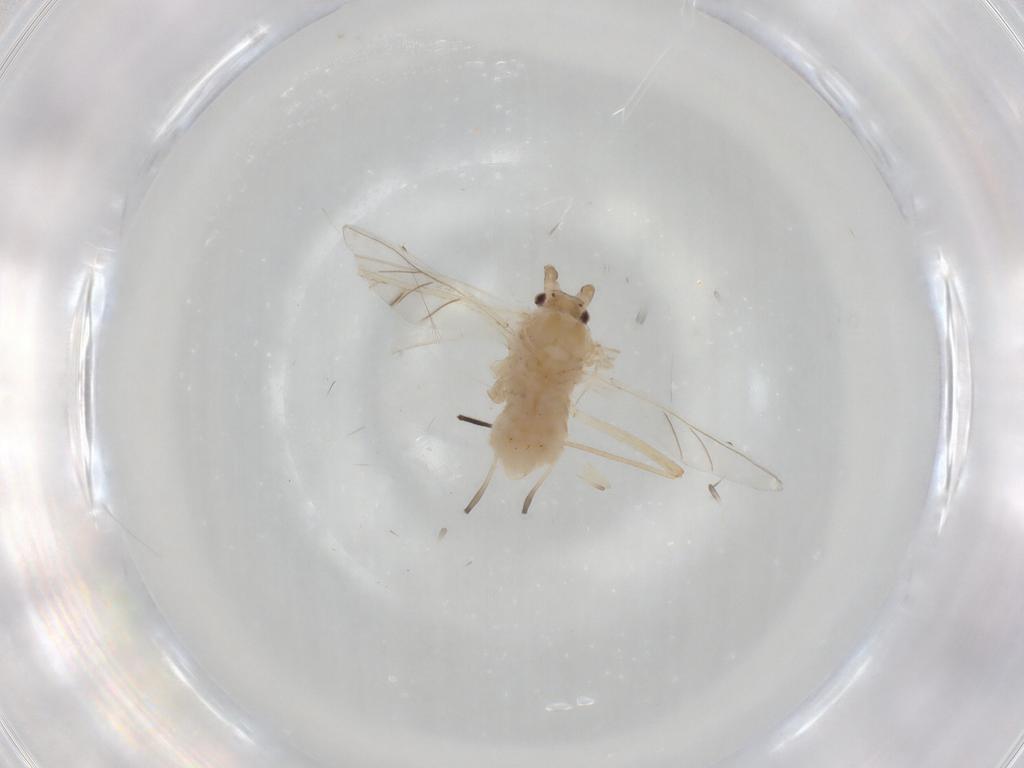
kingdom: Animalia
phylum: Arthropoda
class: Insecta
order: Hemiptera
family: Aphididae
